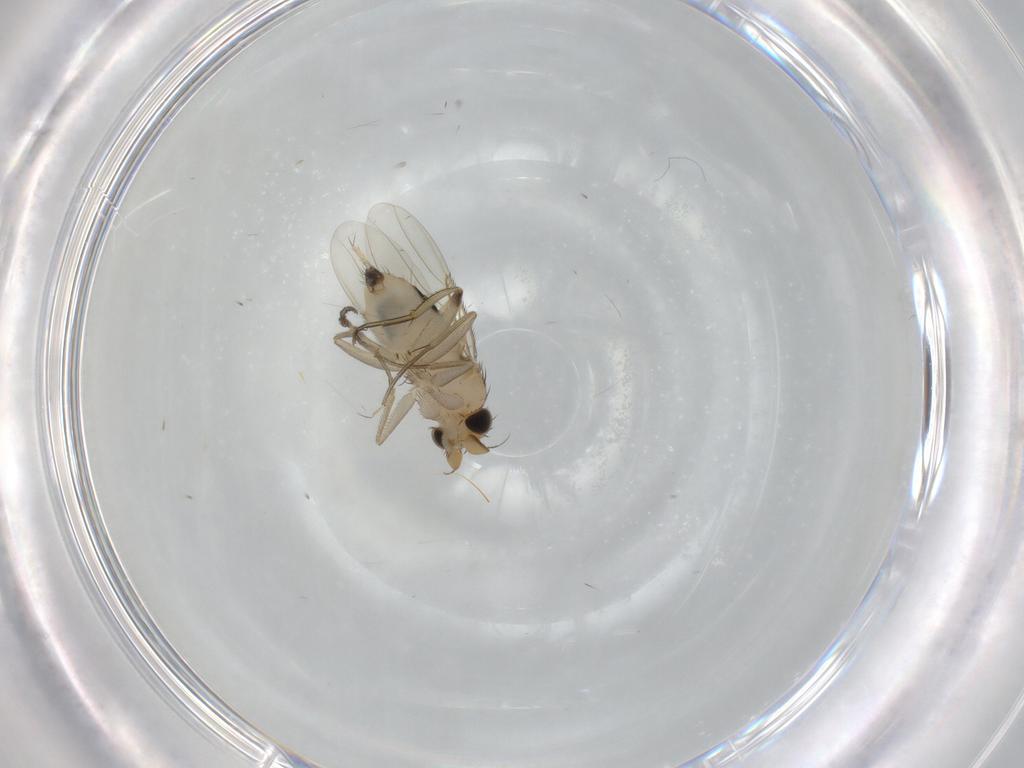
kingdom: Animalia
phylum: Arthropoda
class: Insecta
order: Diptera
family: Phoridae
